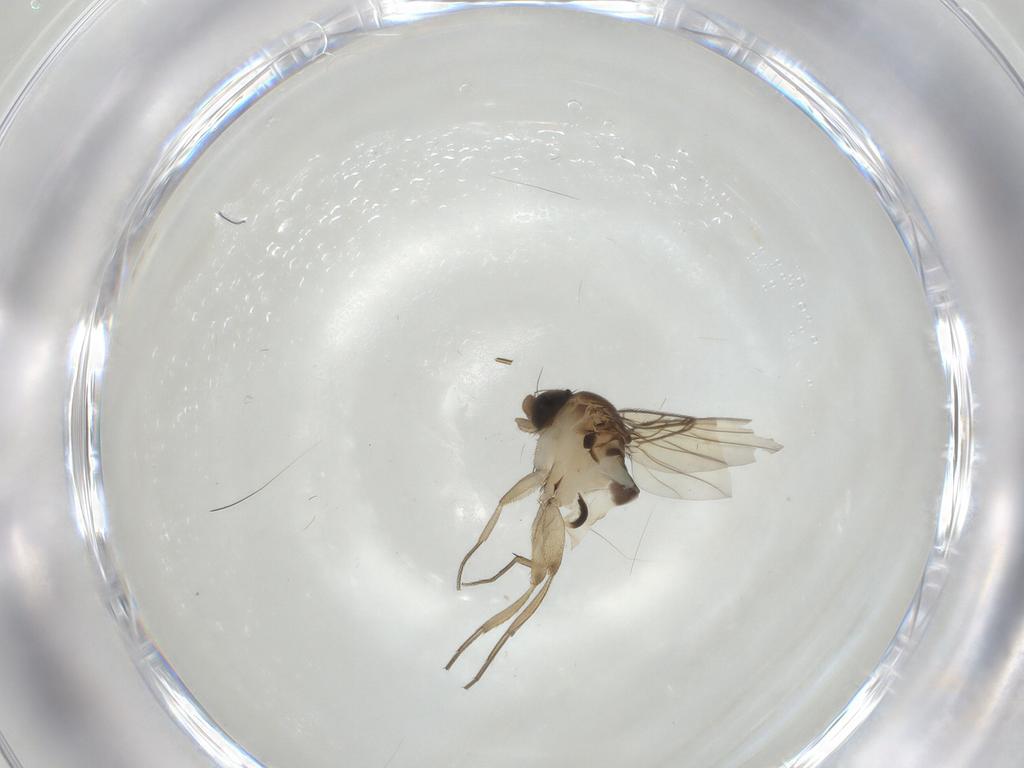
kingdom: Animalia
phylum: Arthropoda
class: Insecta
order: Diptera
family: Phoridae
